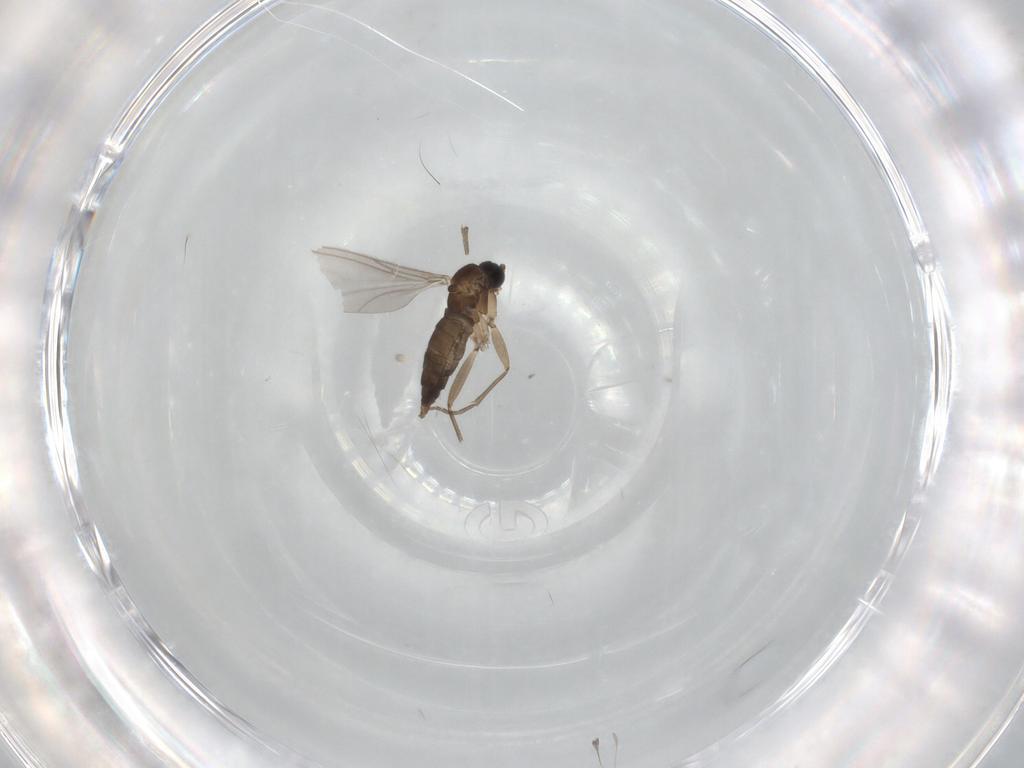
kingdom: Animalia
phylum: Arthropoda
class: Insecta
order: Diptera
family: Sciaridae
